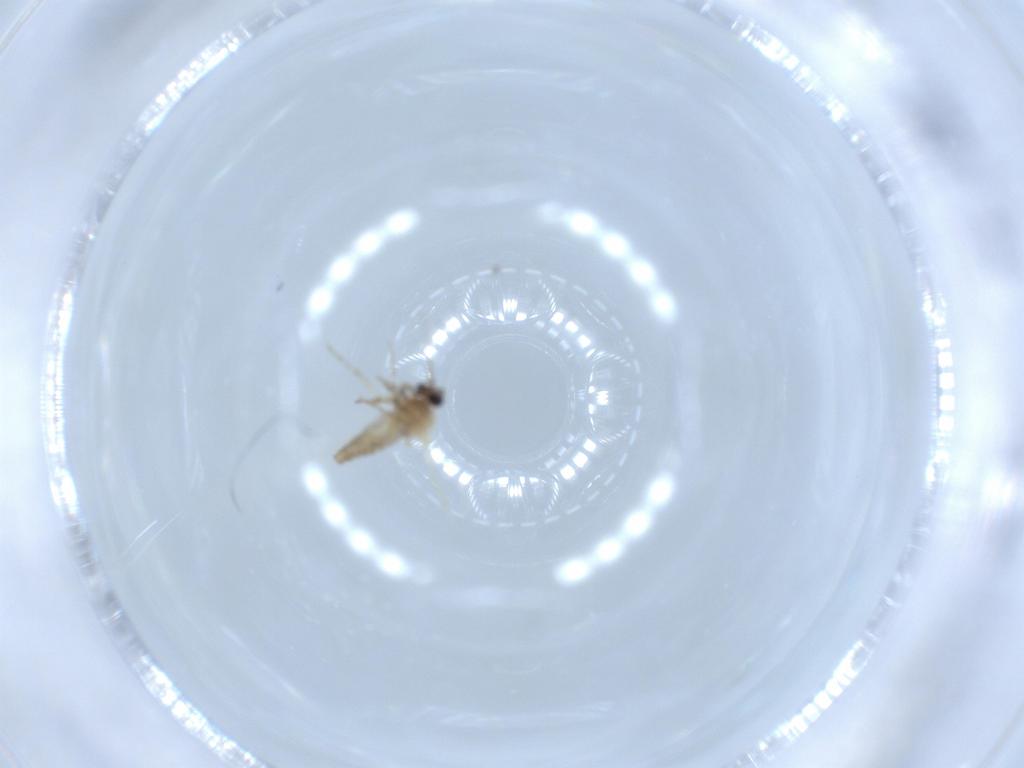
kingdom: Animalia
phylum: Arthropoda
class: Insecta
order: Diptera
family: Ceratopogonidae
